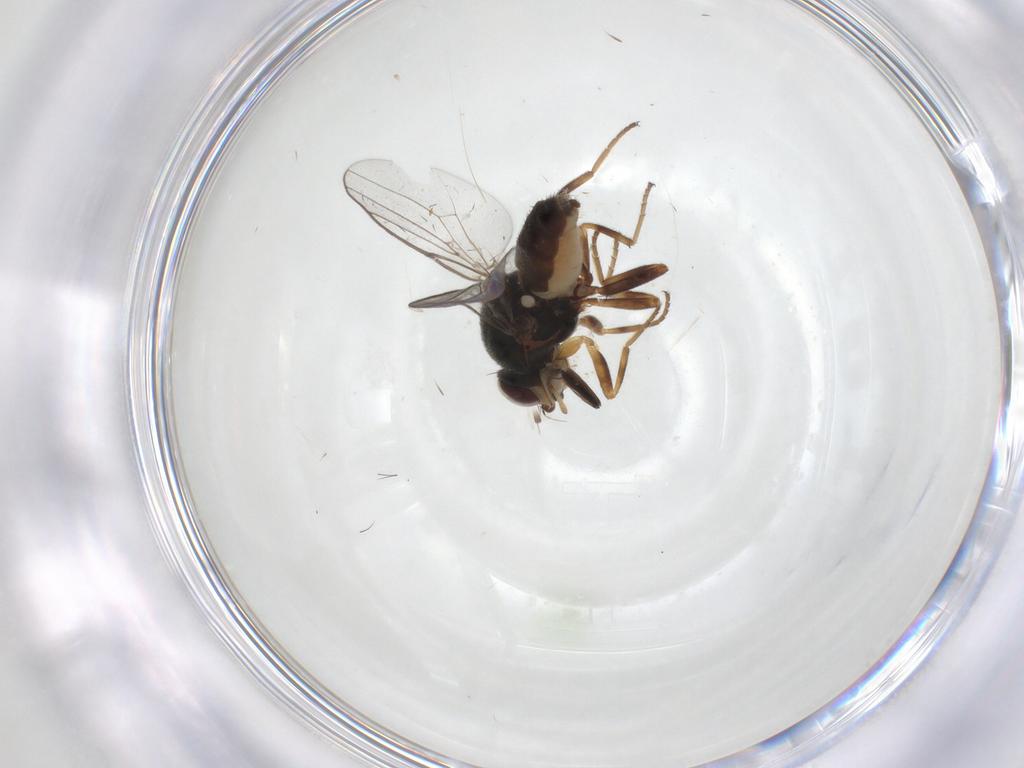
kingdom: Animalia
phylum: Arthropoda
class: Insecta
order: Diptera
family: Chloropidae
